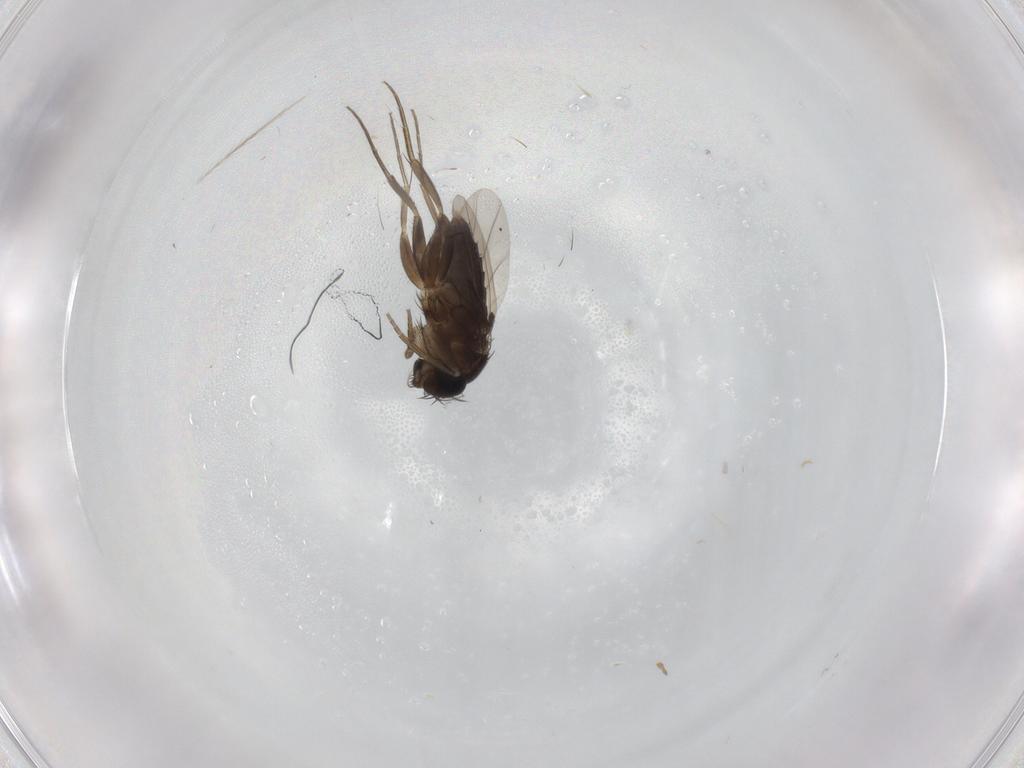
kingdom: Animalia
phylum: Arthropoda
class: Insecta
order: Diptera
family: Phoridae
